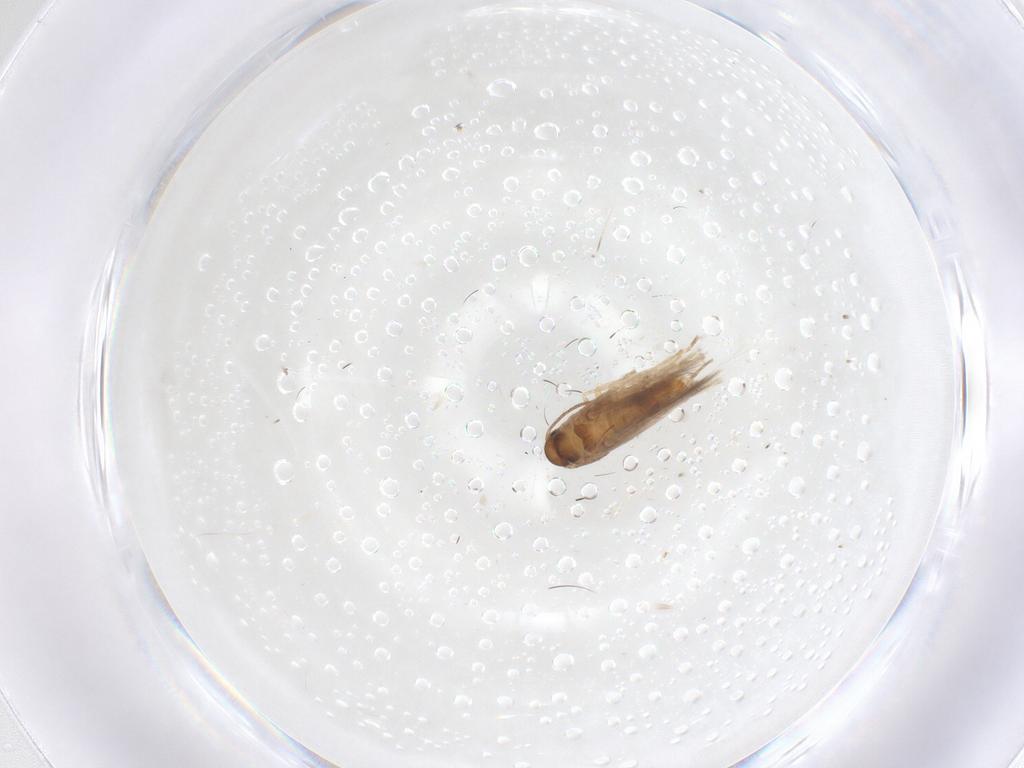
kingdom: Animalia
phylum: Arthropoda
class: Insecta
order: Lepidoptera
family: Heliozelidae
